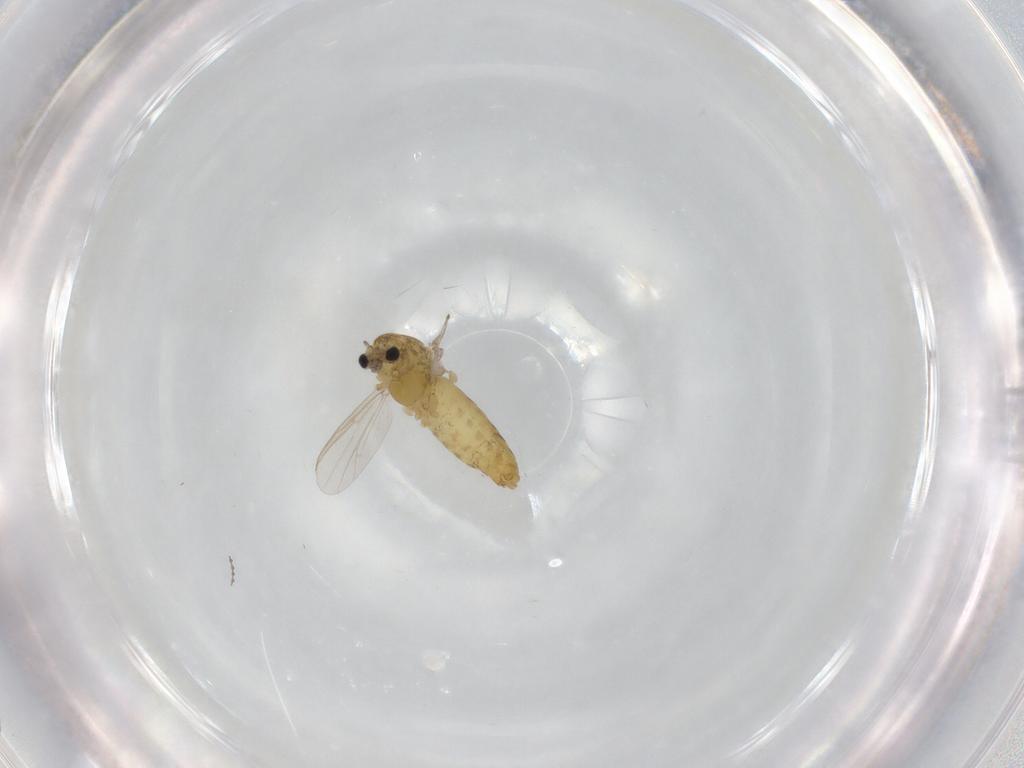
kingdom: Animalia
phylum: Arthropoda
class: Insecta
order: Diptera
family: Chironomidae
